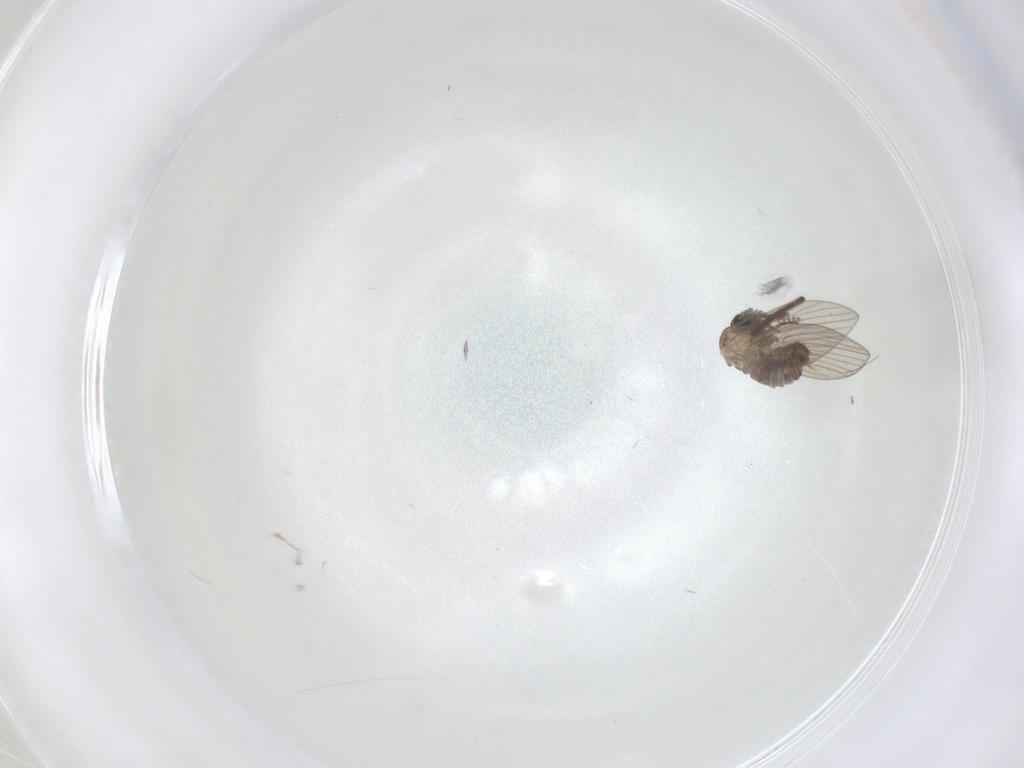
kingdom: Animalia
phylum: Arthropoda
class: Insecta
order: Diptera
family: Psychodidae
